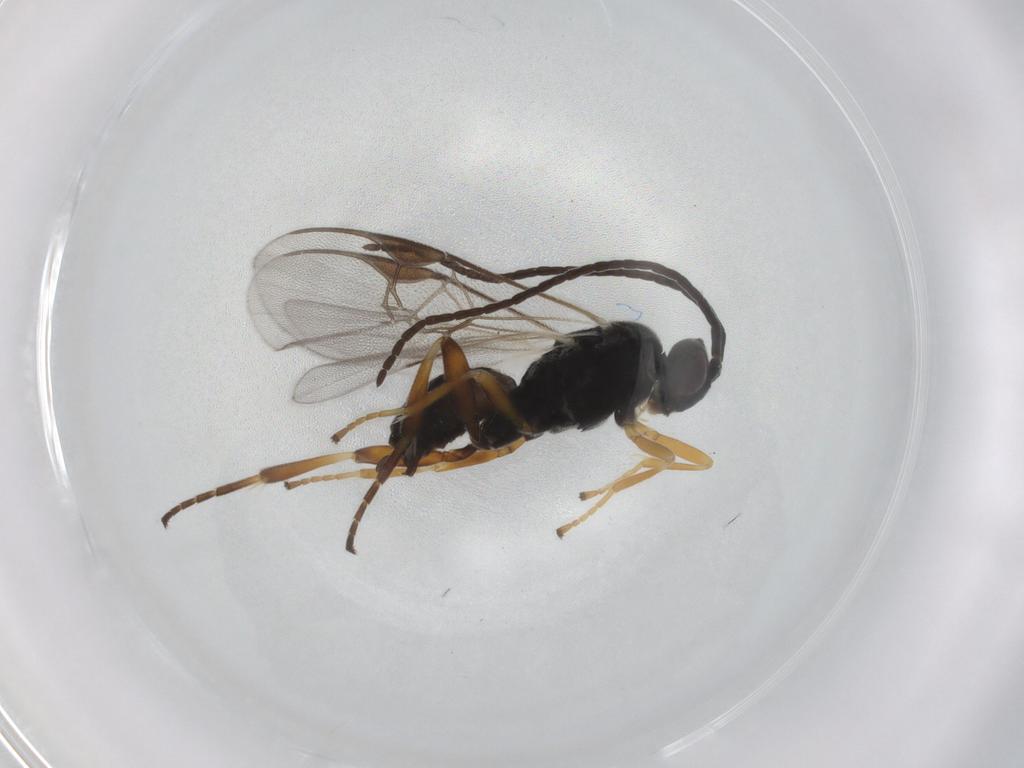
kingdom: Animalia
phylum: Arthropoda
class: Insecta
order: Hymenoptera
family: Braconidae
